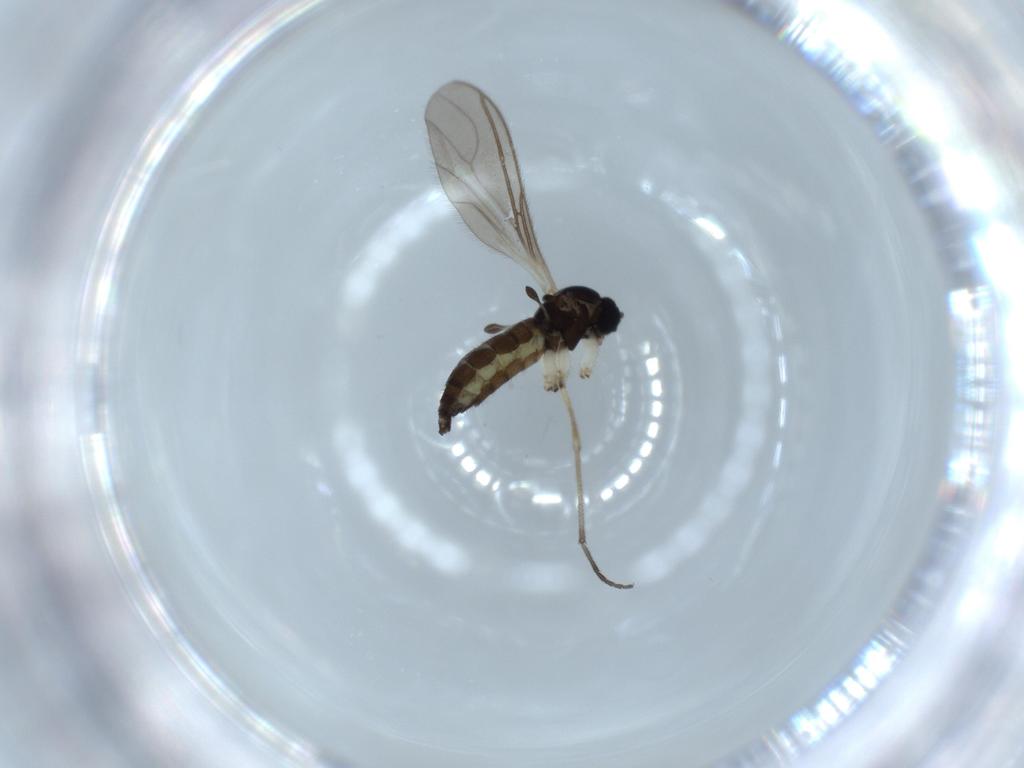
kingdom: Animalia
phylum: Arthropoda
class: Insecta
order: Diptera
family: Sciaridae
